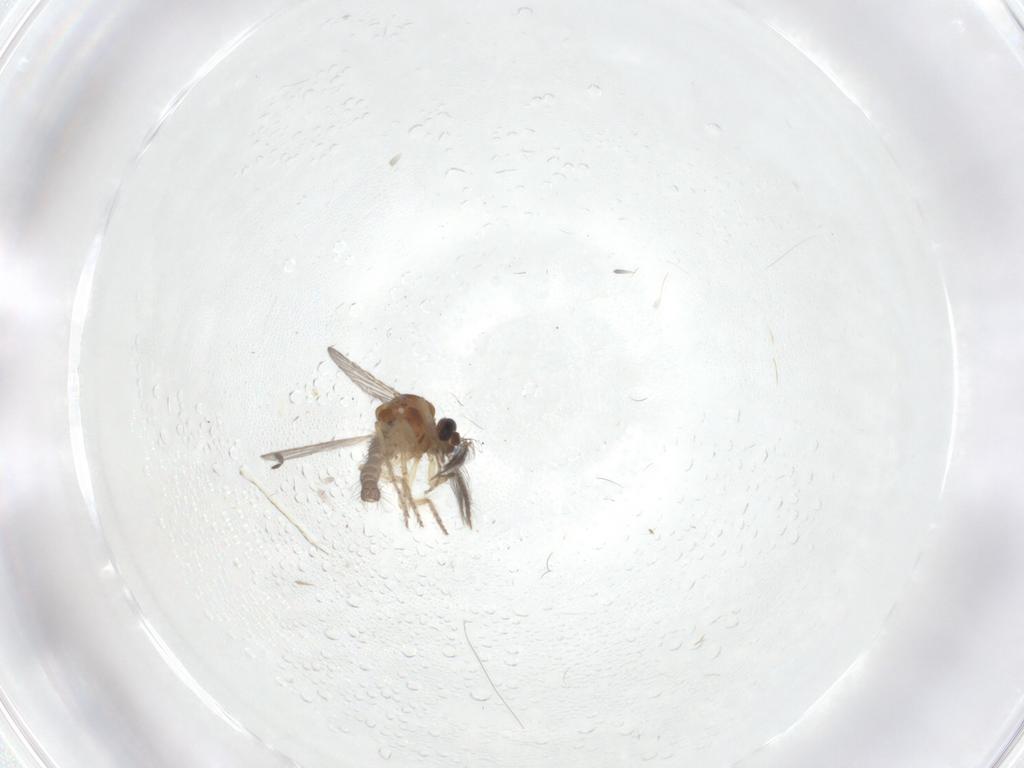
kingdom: Animalia
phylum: Arthropoda
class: Insecta
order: Diptera
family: Ceratopogonidae
